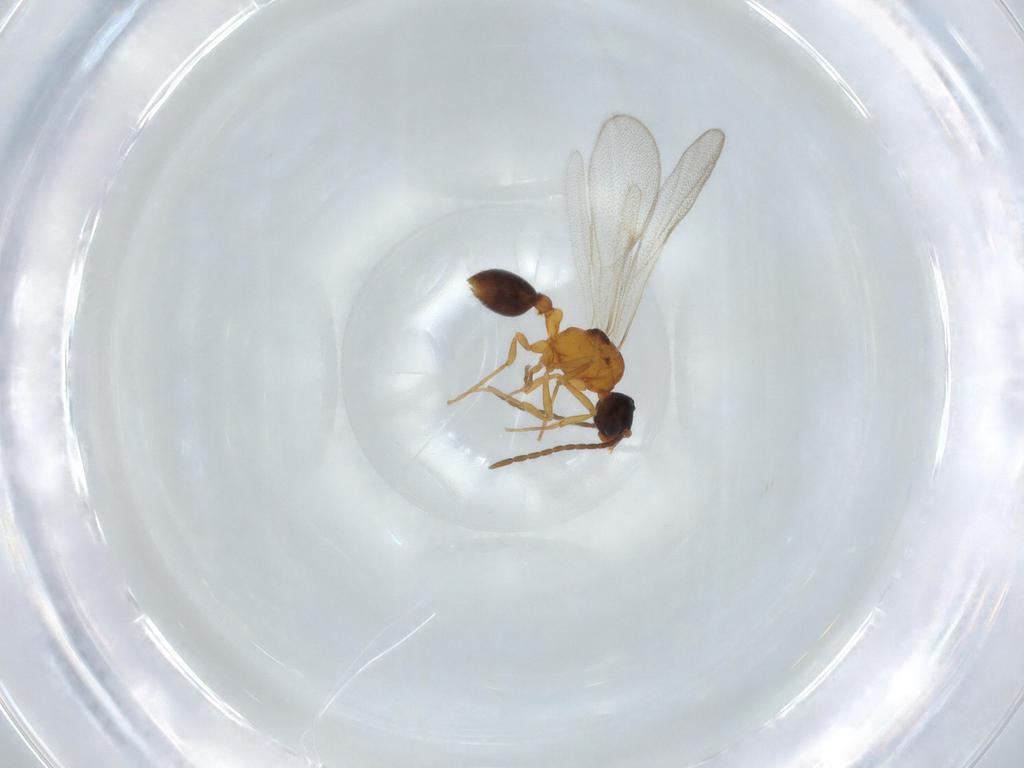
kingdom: Animalia
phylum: Arthropoda
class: Insecta
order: Hymenoptera
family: Formicidae
